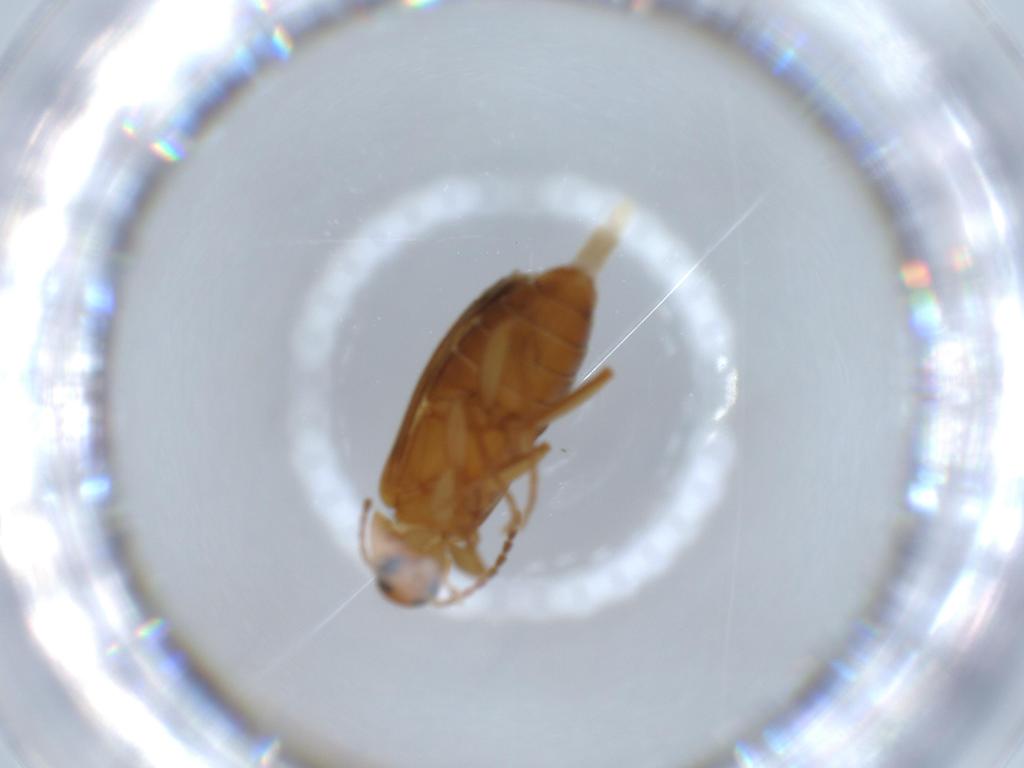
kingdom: Animalia
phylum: Arthropoda
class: Insecta
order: Coleoptera
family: Scraptiidae
